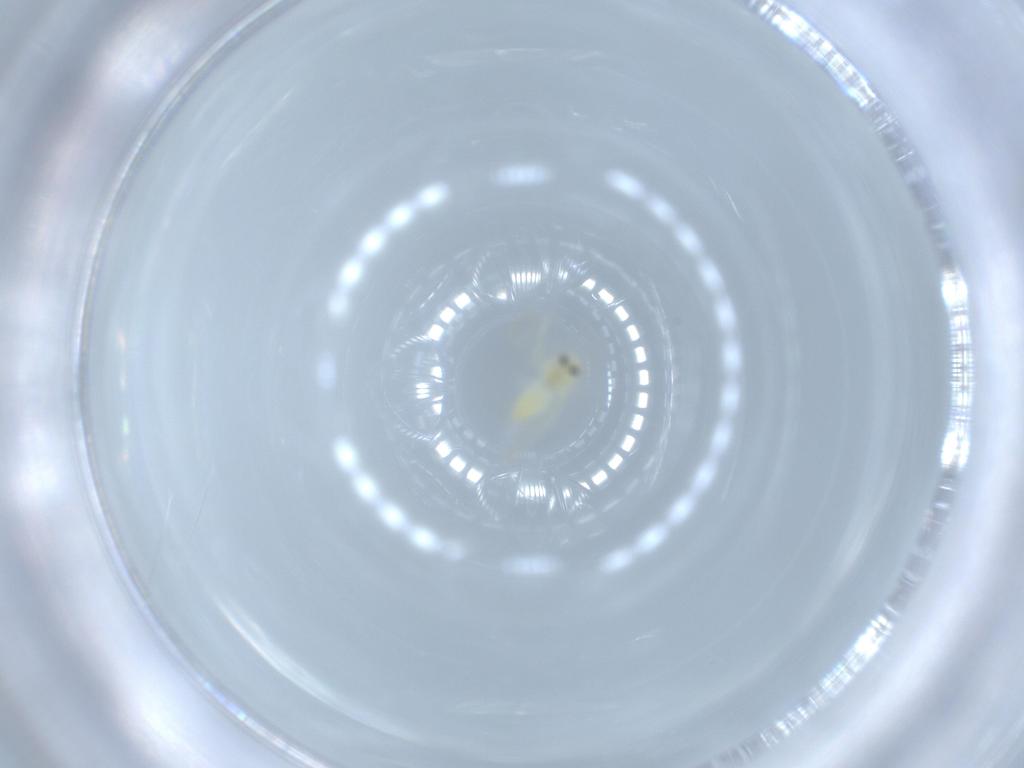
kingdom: Animalia
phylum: Arthropoda
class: Insecta
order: Hemiptera
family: Aleyrodidae
